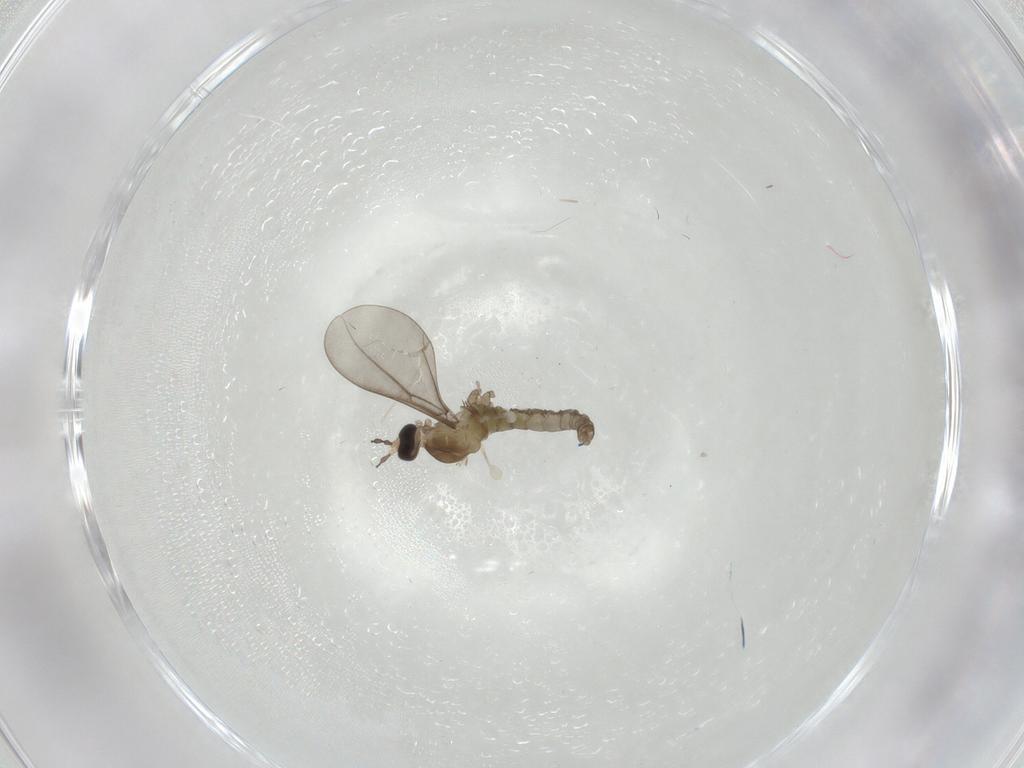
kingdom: Animalia
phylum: Arthropoda
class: Insecta
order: Diptera
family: Cecidomyiidae
